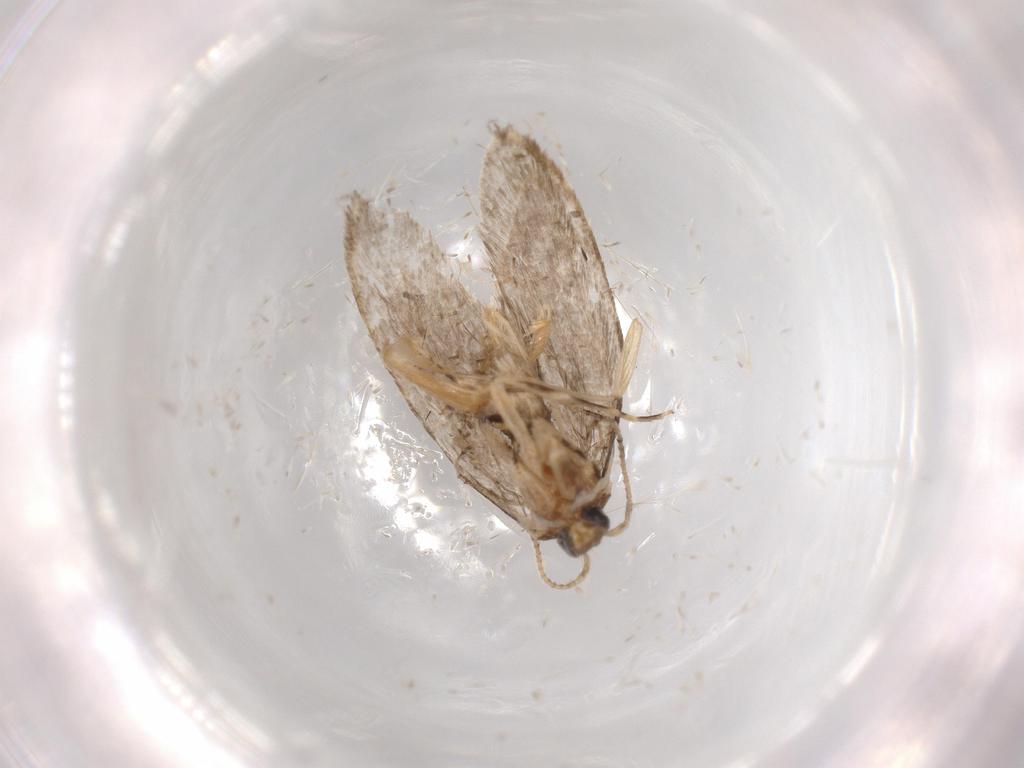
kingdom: Animalia
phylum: Arthropoda
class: Insecta
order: Lepidoptera
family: Tineidae
